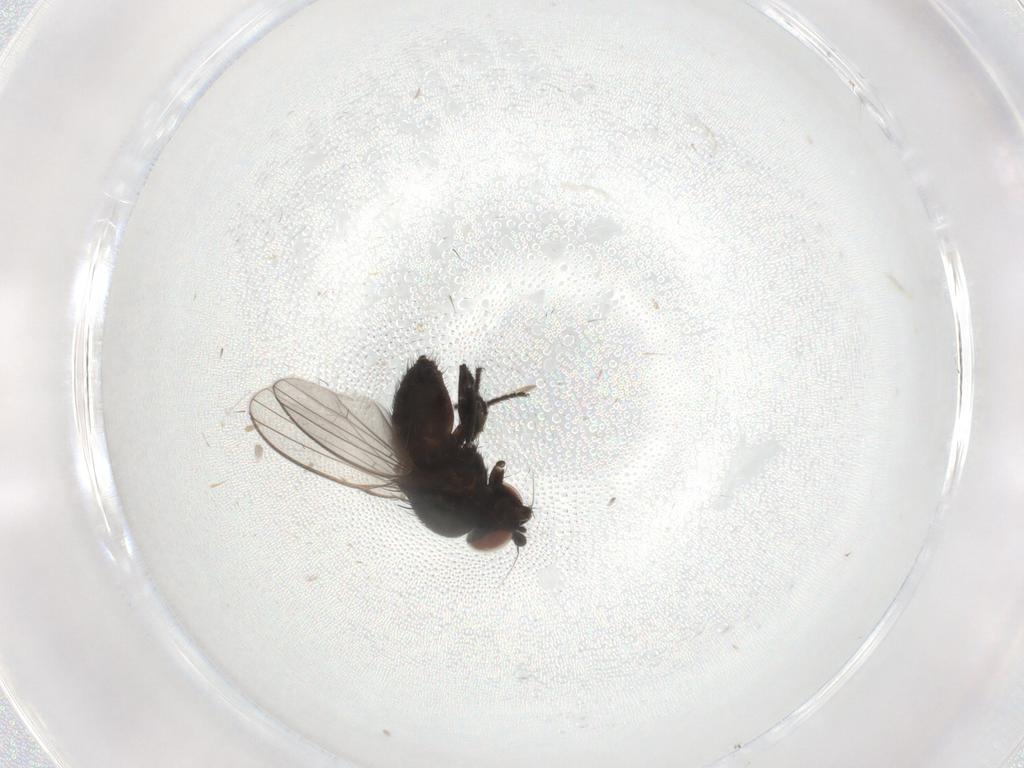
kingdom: Animalia
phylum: Arthropoda
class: Insecta
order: Diptera
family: Milichiidae
